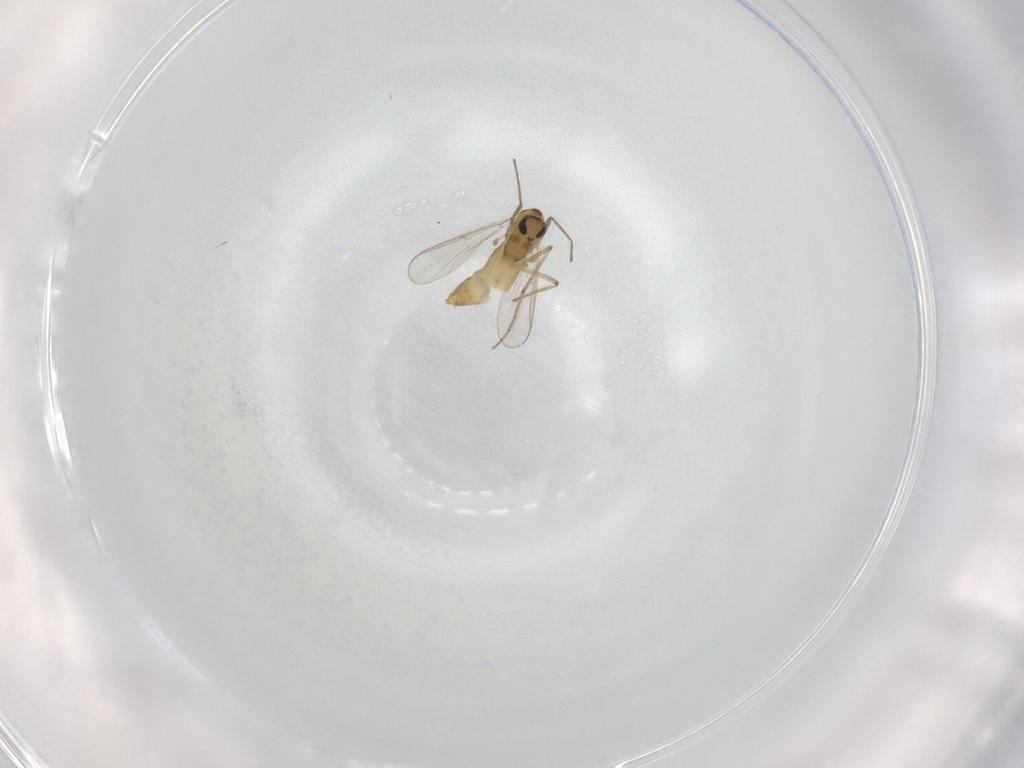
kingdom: Animalia
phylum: Arthropoda
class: Insecta
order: Diptera
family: Chironomidae
